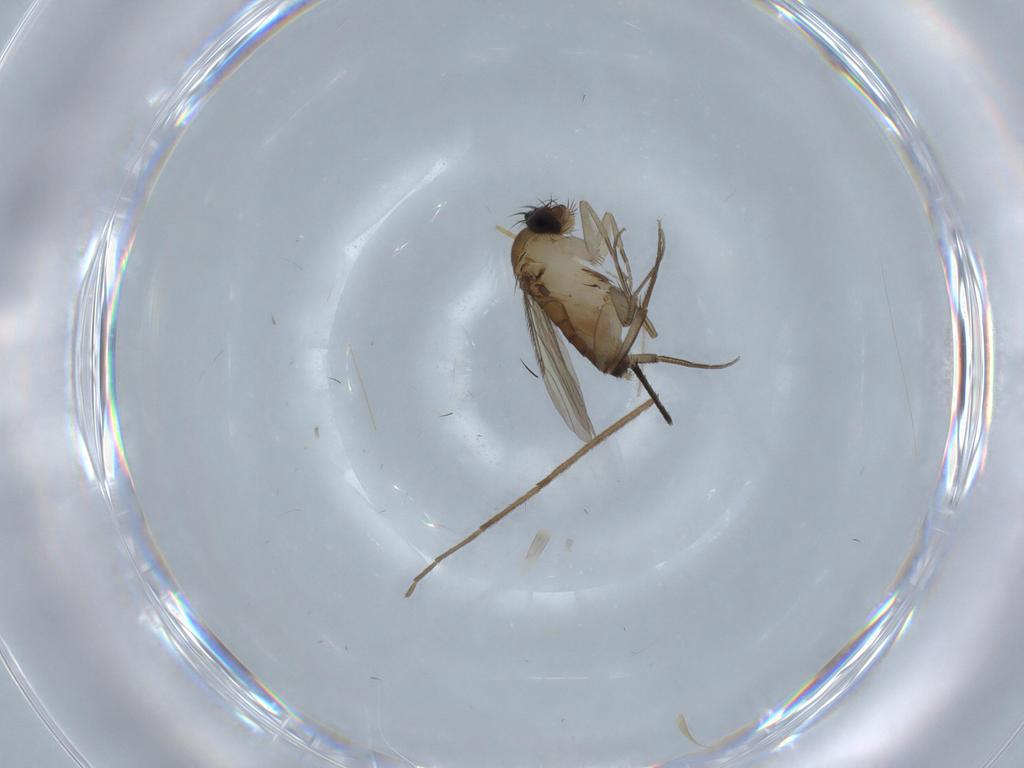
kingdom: Animalia
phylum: Arthropoda
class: Insecta
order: Diptera
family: Phoridae
